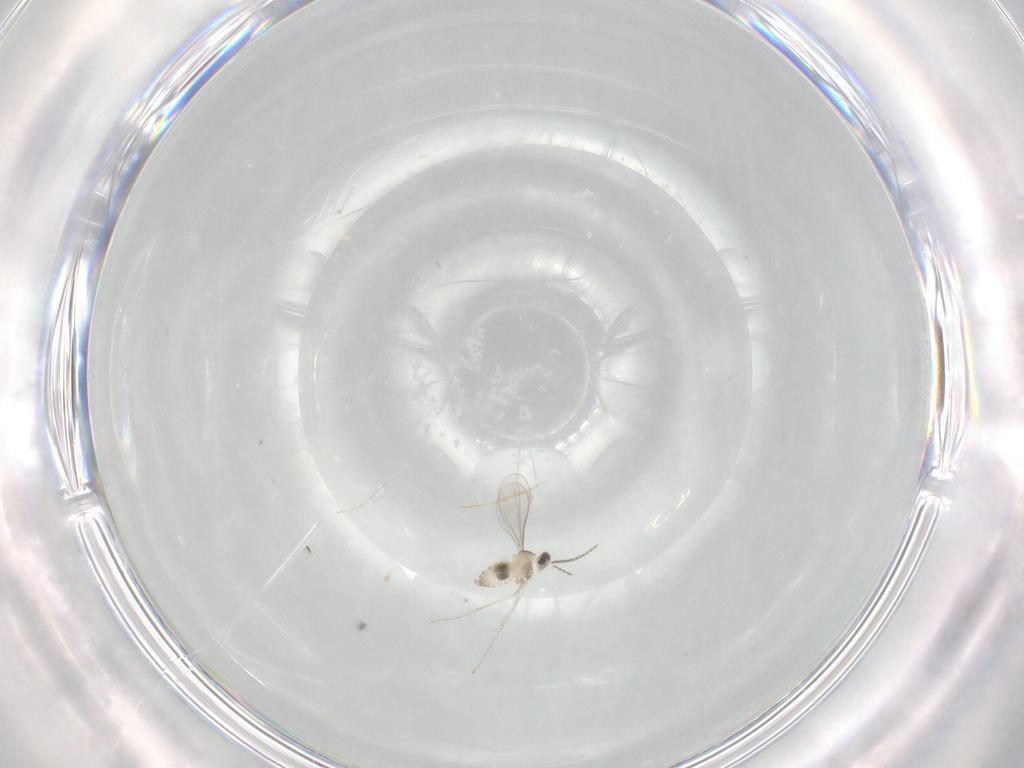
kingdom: Animalia
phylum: Arthropoda
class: Insecta
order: Diptera
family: Cecidomyiidae
